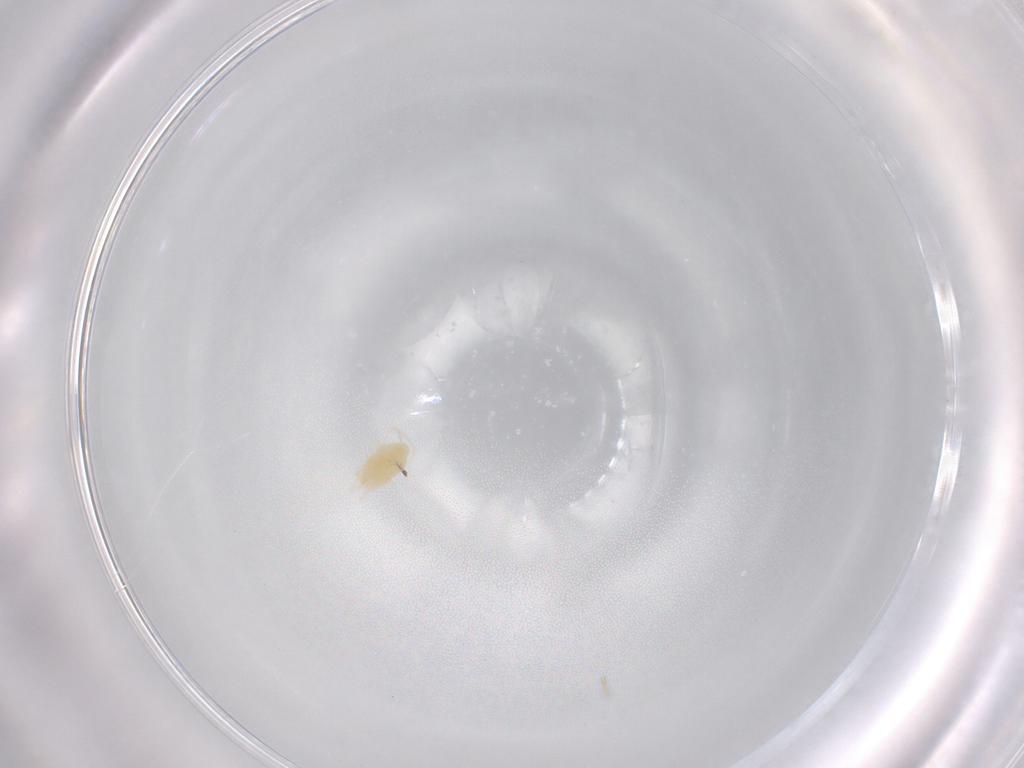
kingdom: Animalia
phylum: Arthropoda
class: Arachnida
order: Trombidiformes
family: Tetranychidae
